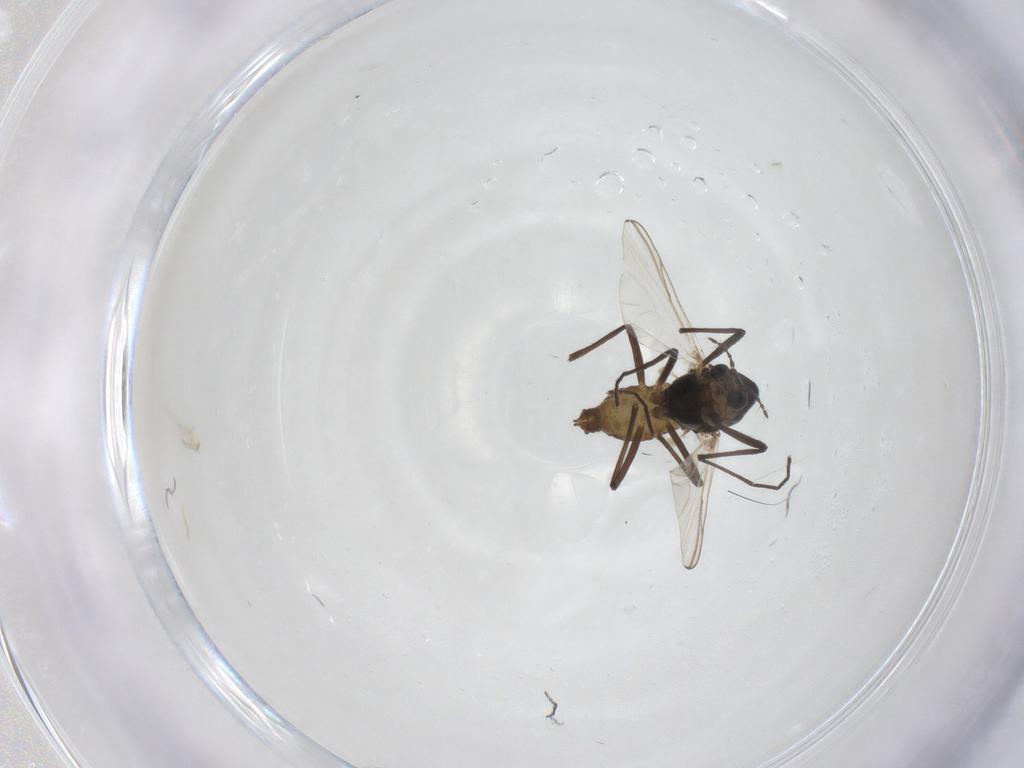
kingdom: Animalia
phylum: Arthropoda
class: Insecta
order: Diptera
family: Phoridae
